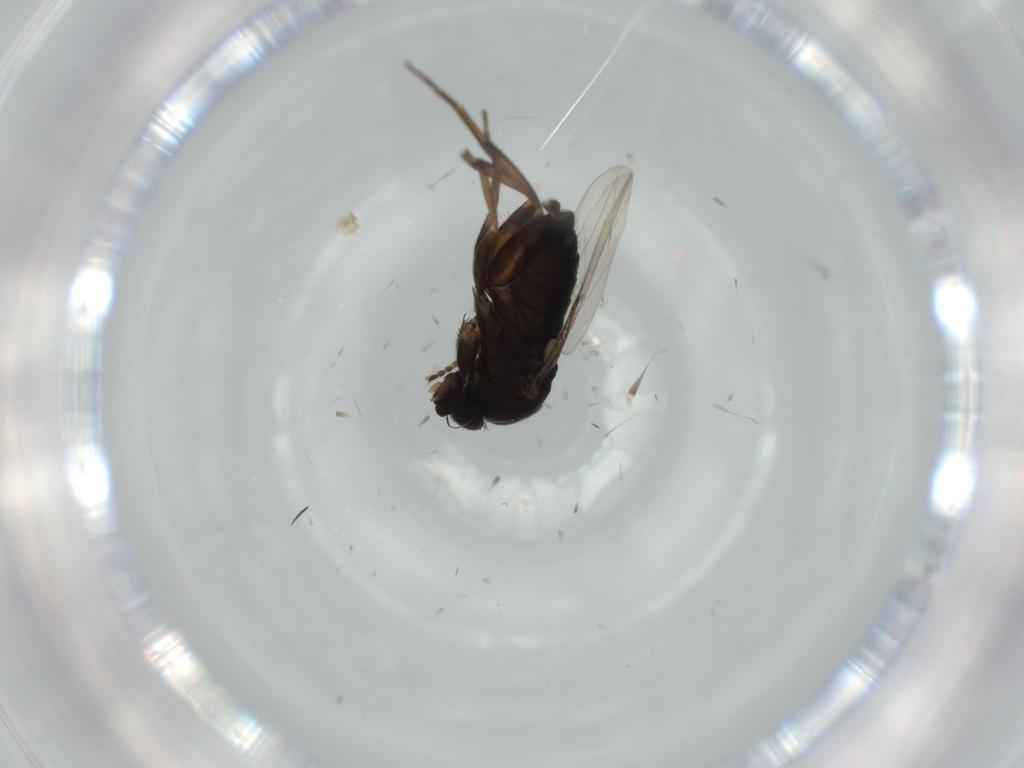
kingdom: Animalia
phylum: Arthropoda
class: Insecta
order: Diptera
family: Phoridae
